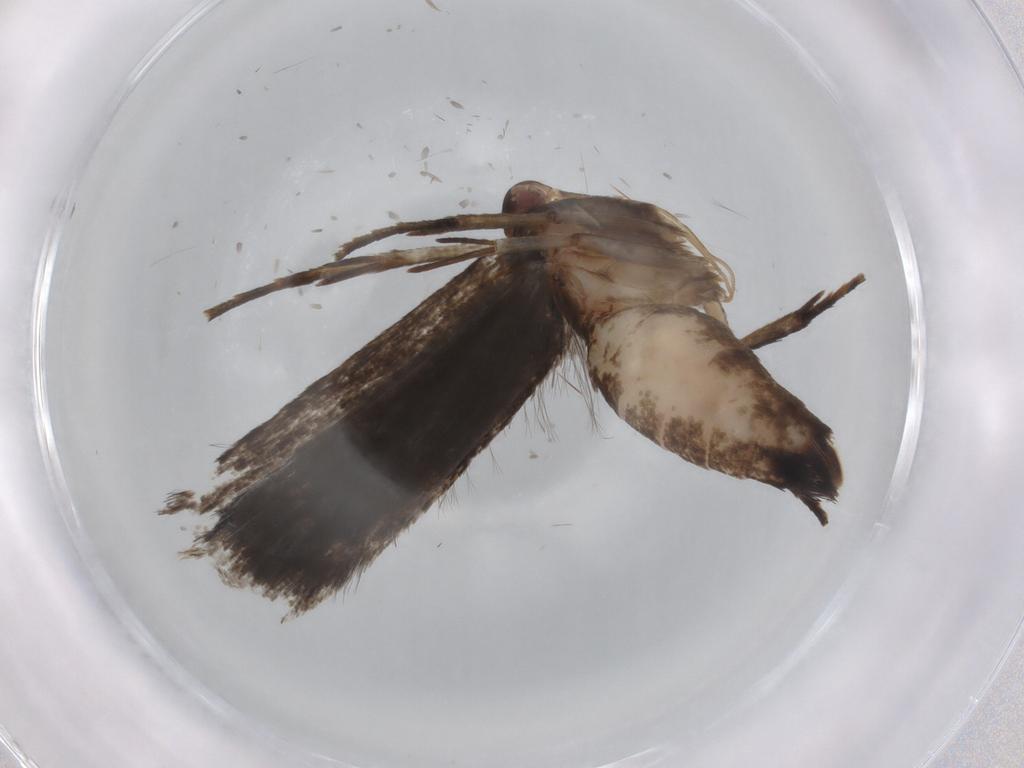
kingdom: Animalia
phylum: Arthropoda
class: Insecta
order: Lepidoptera
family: Gelechiidae
